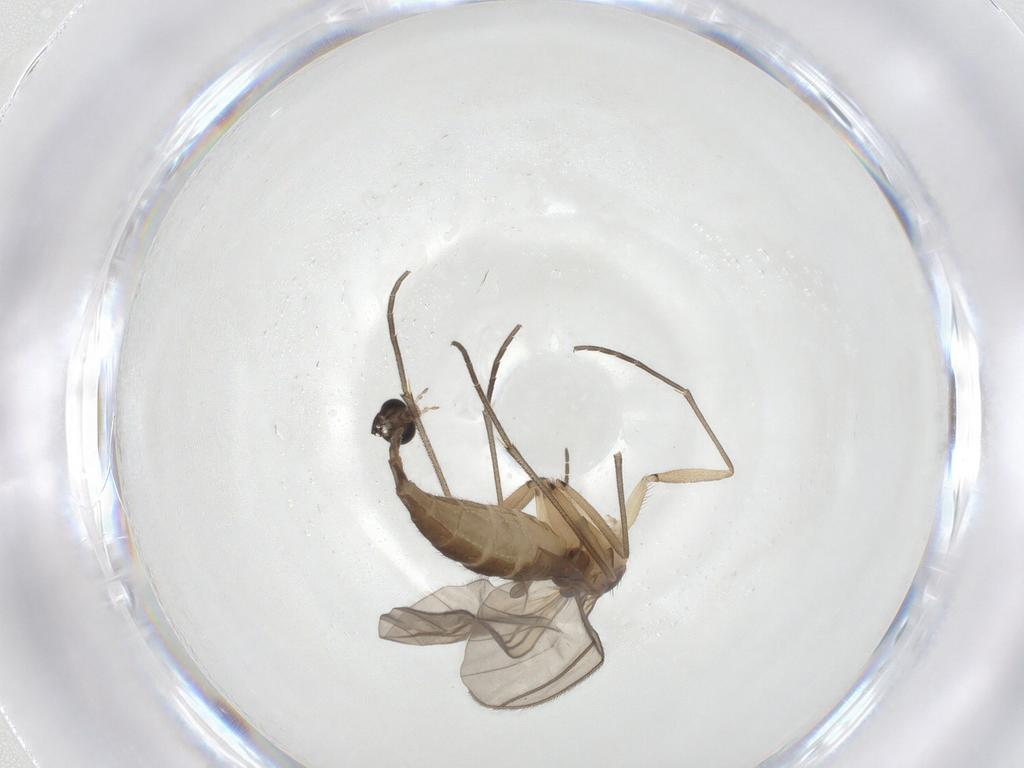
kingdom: Animalia
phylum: Arthropoda
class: Insecta
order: Diptera
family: Sciaridae
